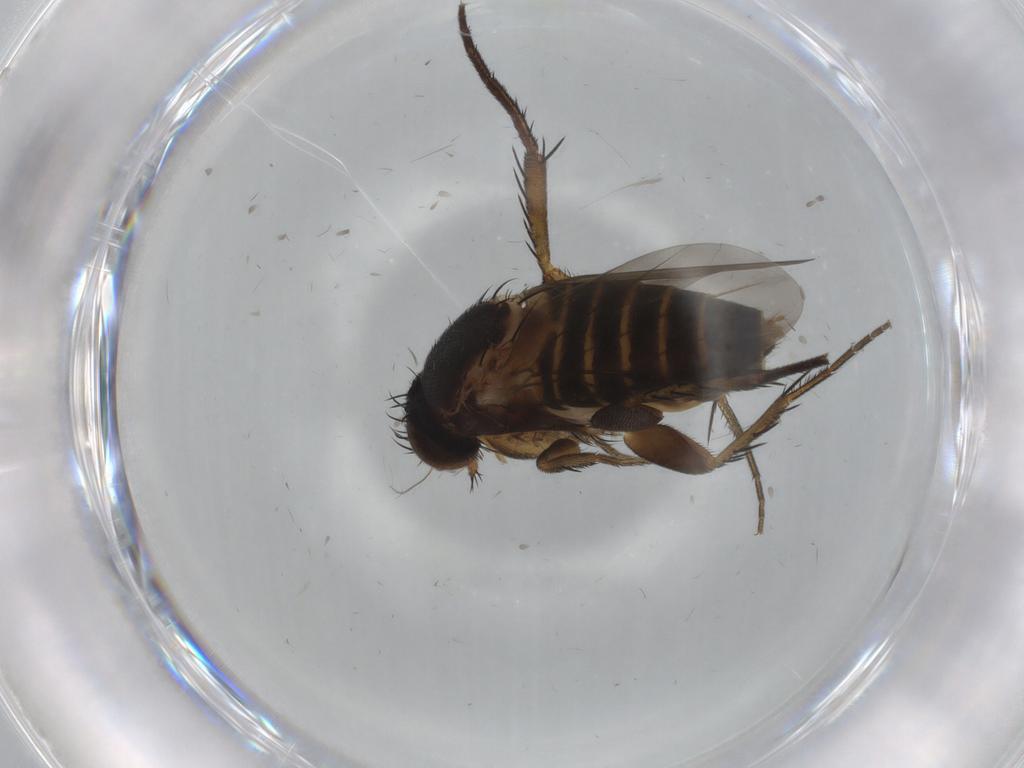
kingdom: Animalia
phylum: Arthropoda
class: Insecta
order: Diptera
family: Phoridae
